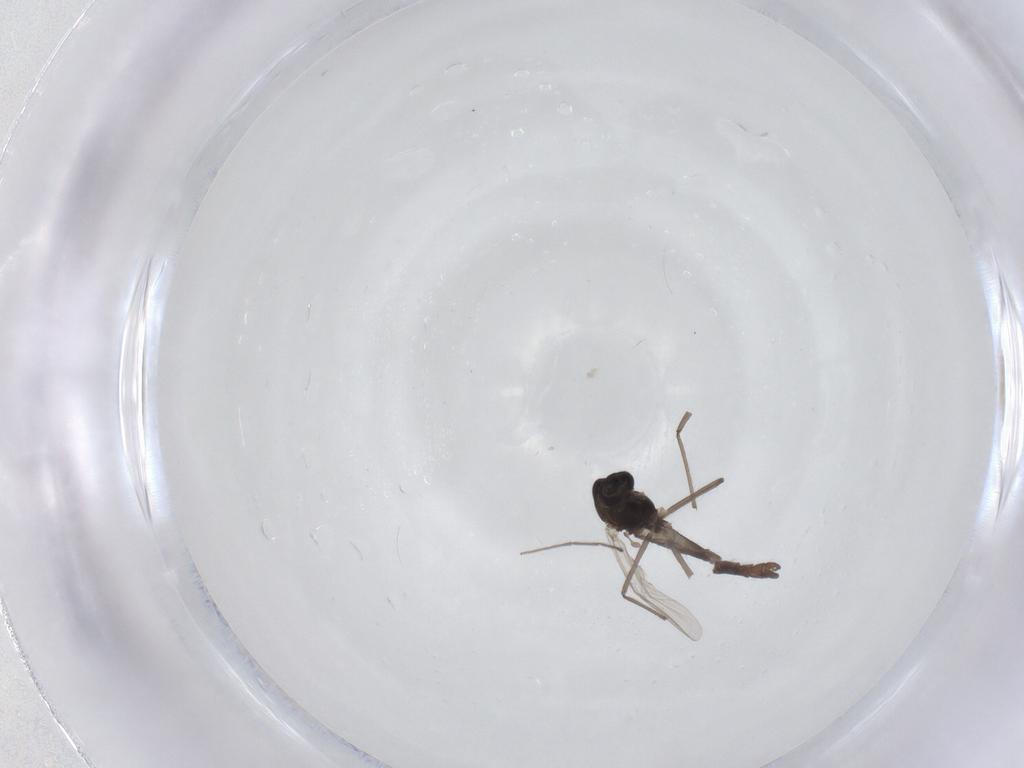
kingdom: Animalia
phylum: Arthropoda
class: Insecta
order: Diptera
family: Chironomidae
